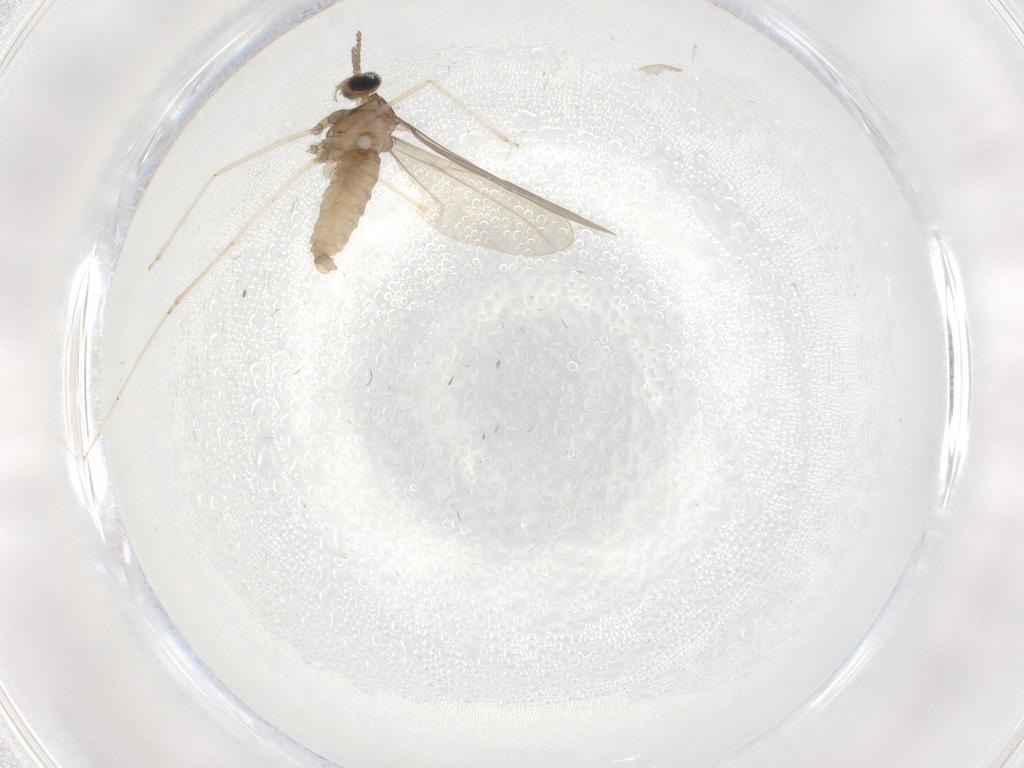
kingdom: Animalia
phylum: Arthropoda
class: Insecta
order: Diptera
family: Cecidomyiidae
